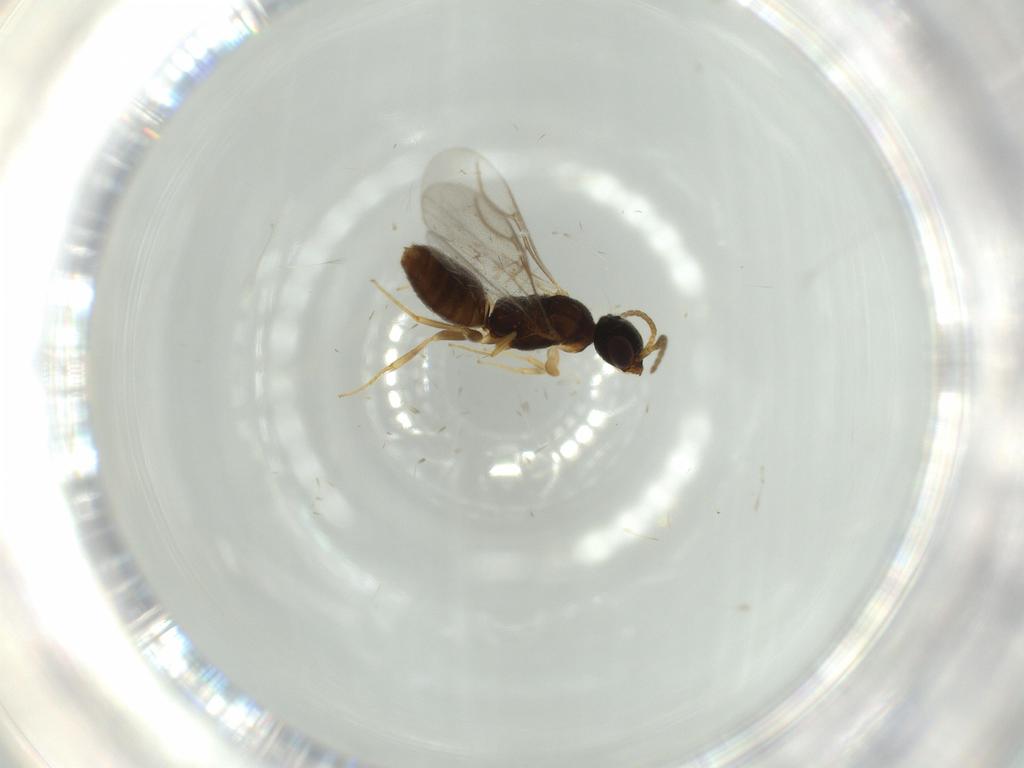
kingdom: Animalia
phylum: Arthropoda
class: Insecta
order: Hymenoptera
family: Bethylidae
